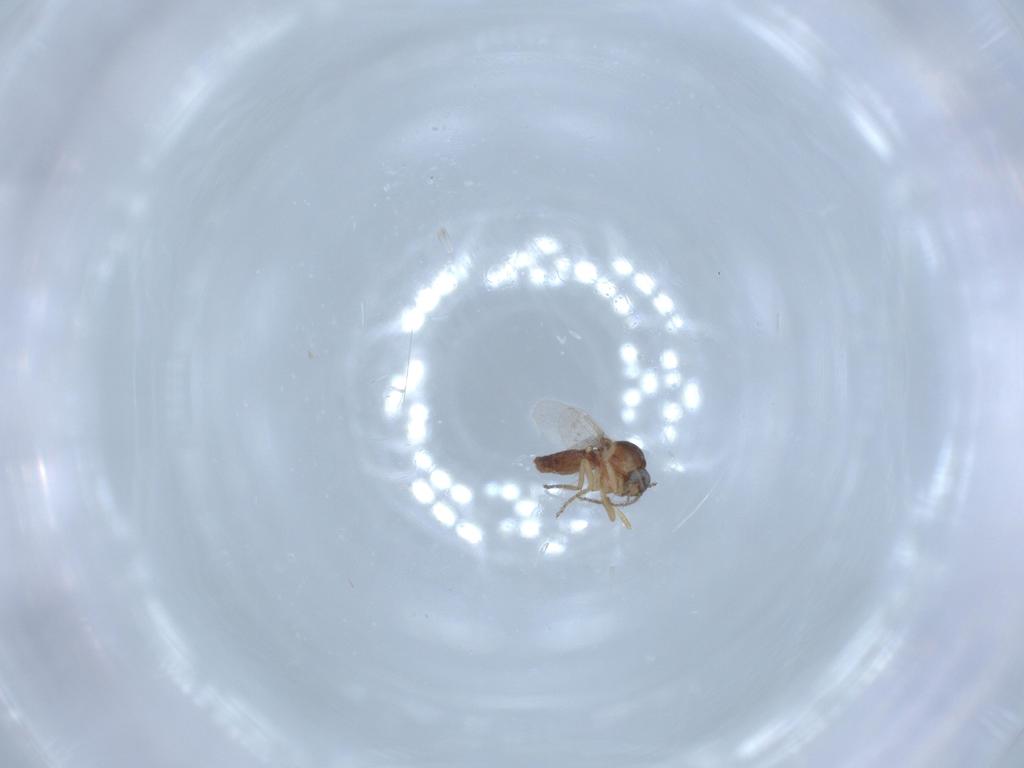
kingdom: Animalia
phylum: Arthropoda
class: Insecta
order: Diptera
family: Ceratopogonidae
